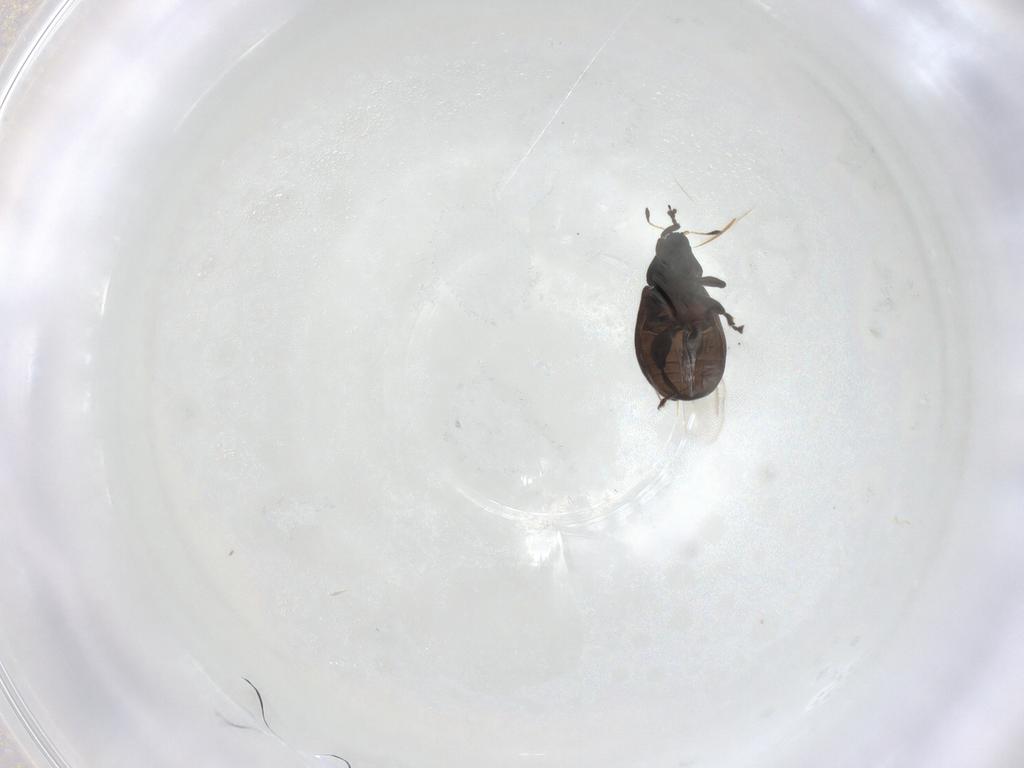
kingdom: Animalia
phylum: Arthropoda
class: Insecta
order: Coleoptera
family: Curculionidae
